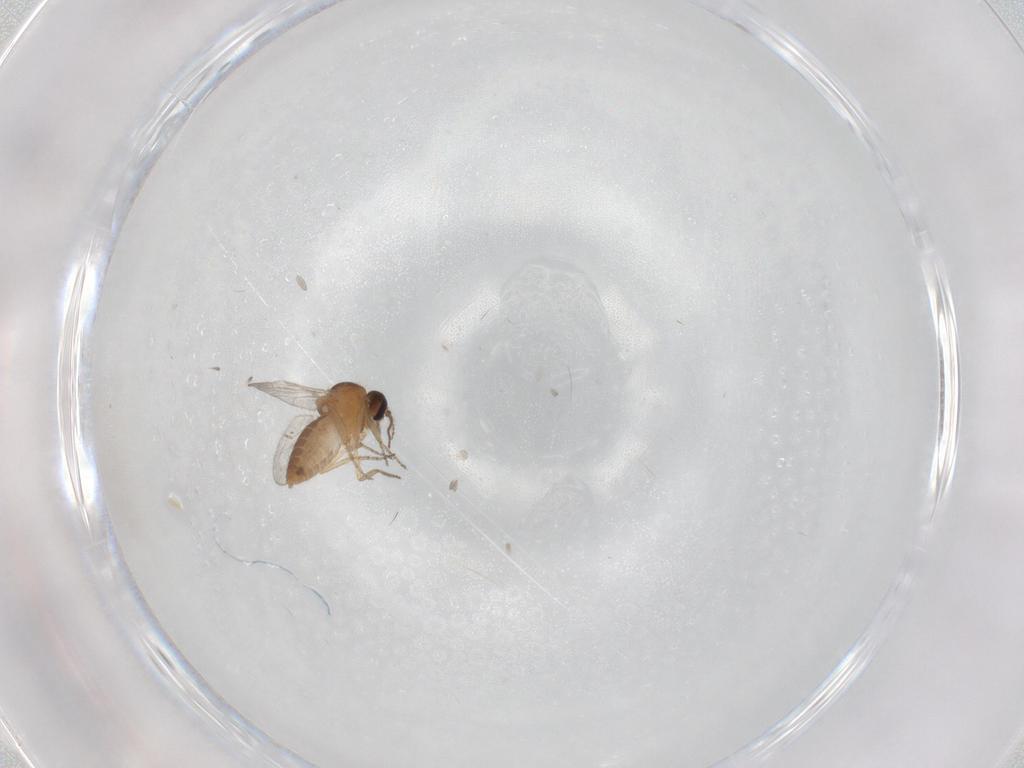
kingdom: Animalia
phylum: Arthropoda
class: Insecta
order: Diptera
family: Ceratopogonidae
